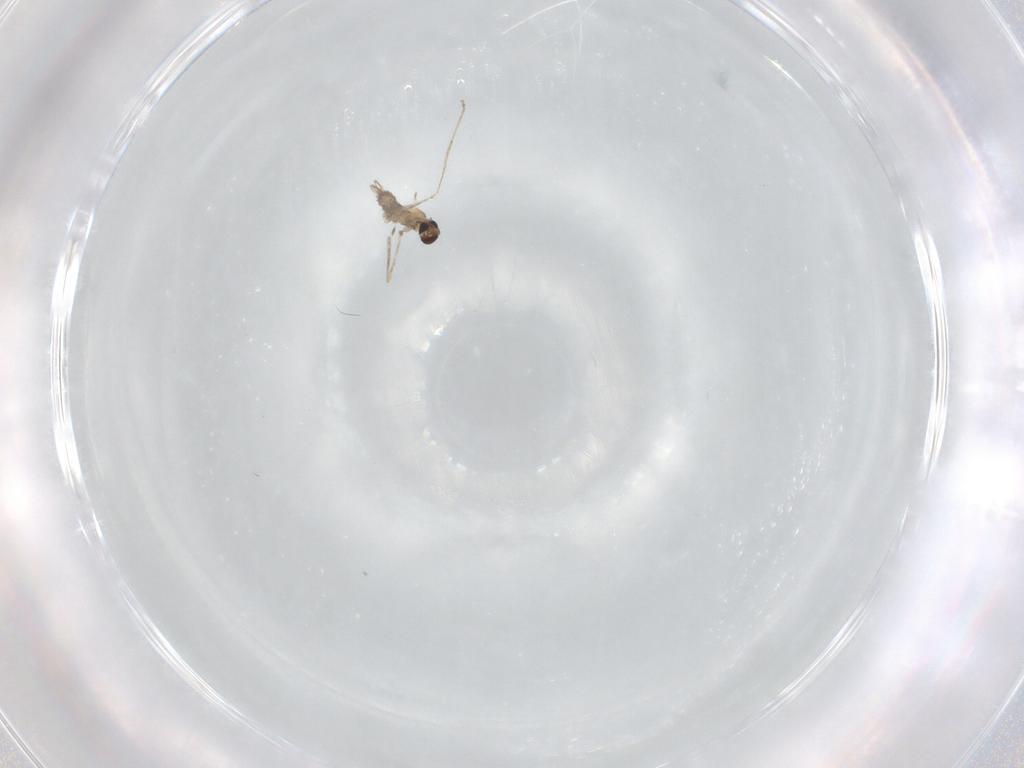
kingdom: Animalia
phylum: Arthropoda
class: Insecta
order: Diptera
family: Cecidomyiidae
